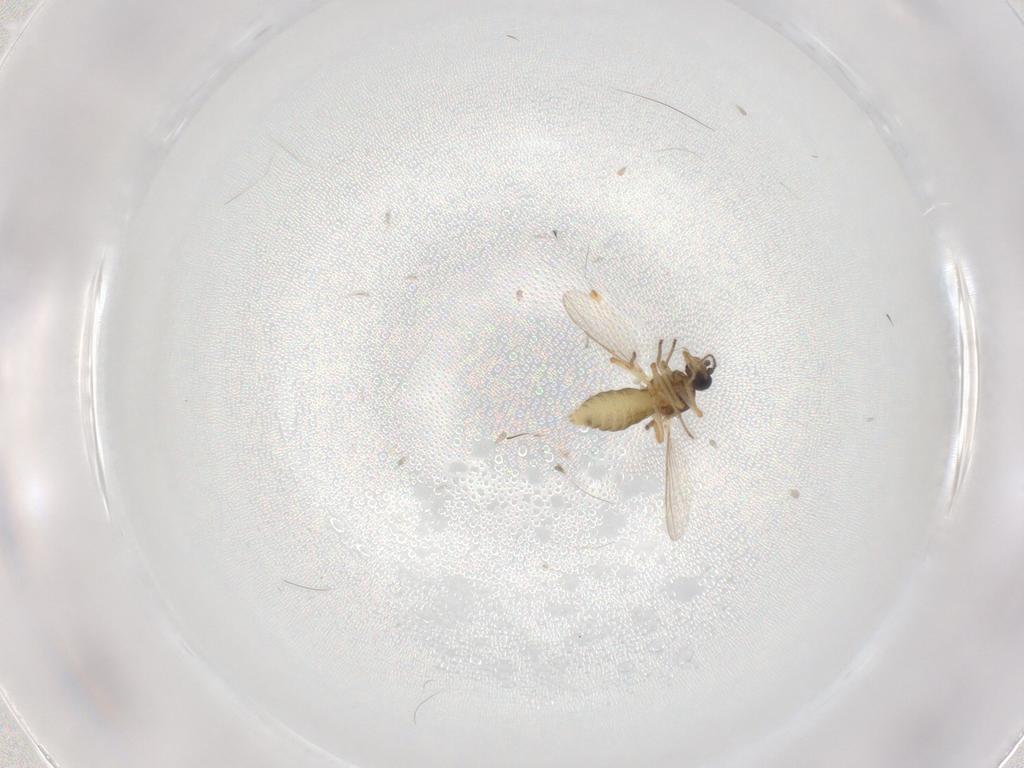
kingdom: Animalia
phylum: Arthropoda
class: Insecta
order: Diptera
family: Ceratopogonidae
